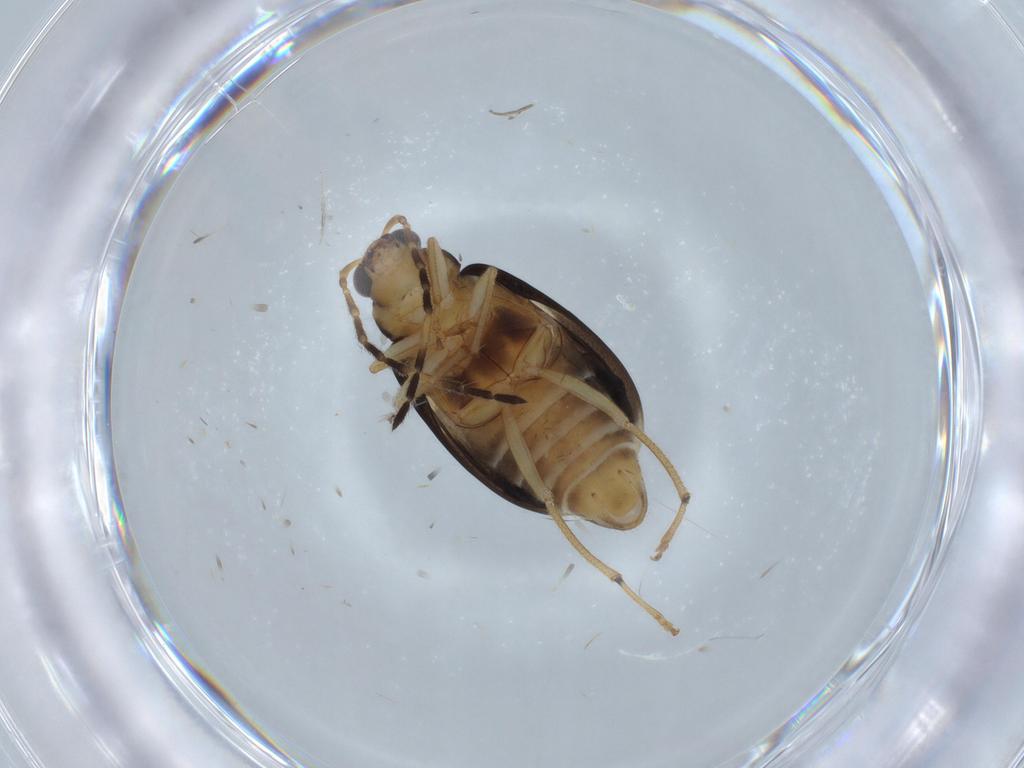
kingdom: Animalia
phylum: Arthropoda
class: Insecta
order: Coleoptera
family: Chrysomelidae
